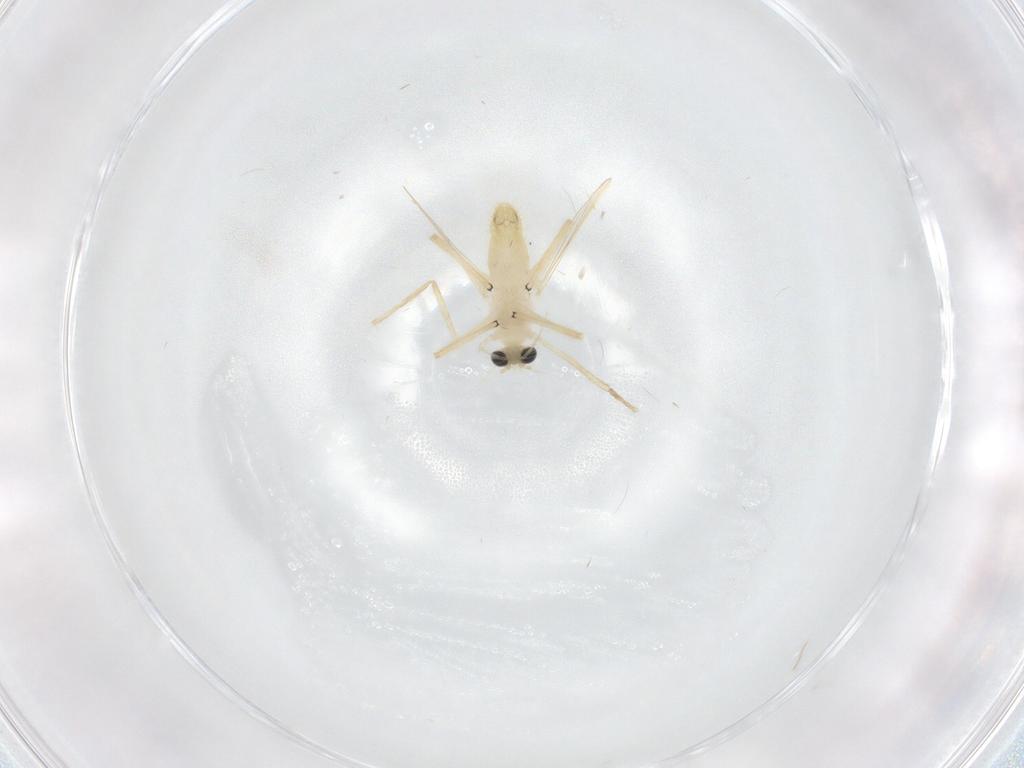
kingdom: Animalia
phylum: Arthropoda
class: Insecta
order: Diptera
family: Chironomidae
